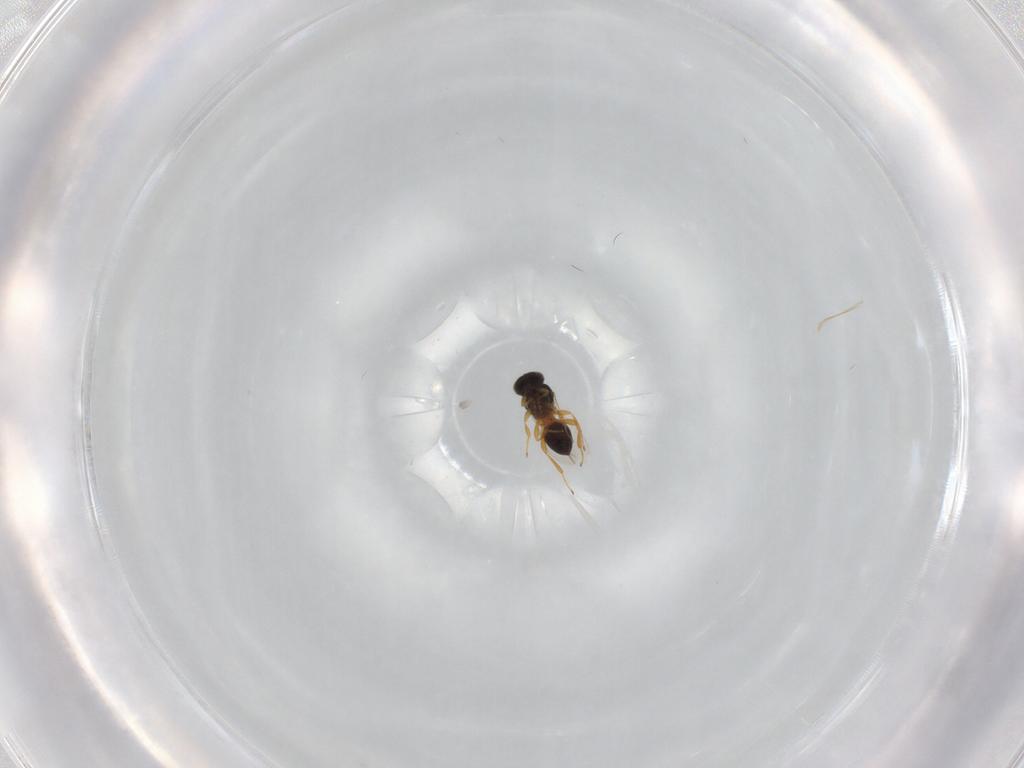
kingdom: Animalia
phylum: Arthropoda
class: Insecta
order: Hymenoptera
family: Platygastridae
